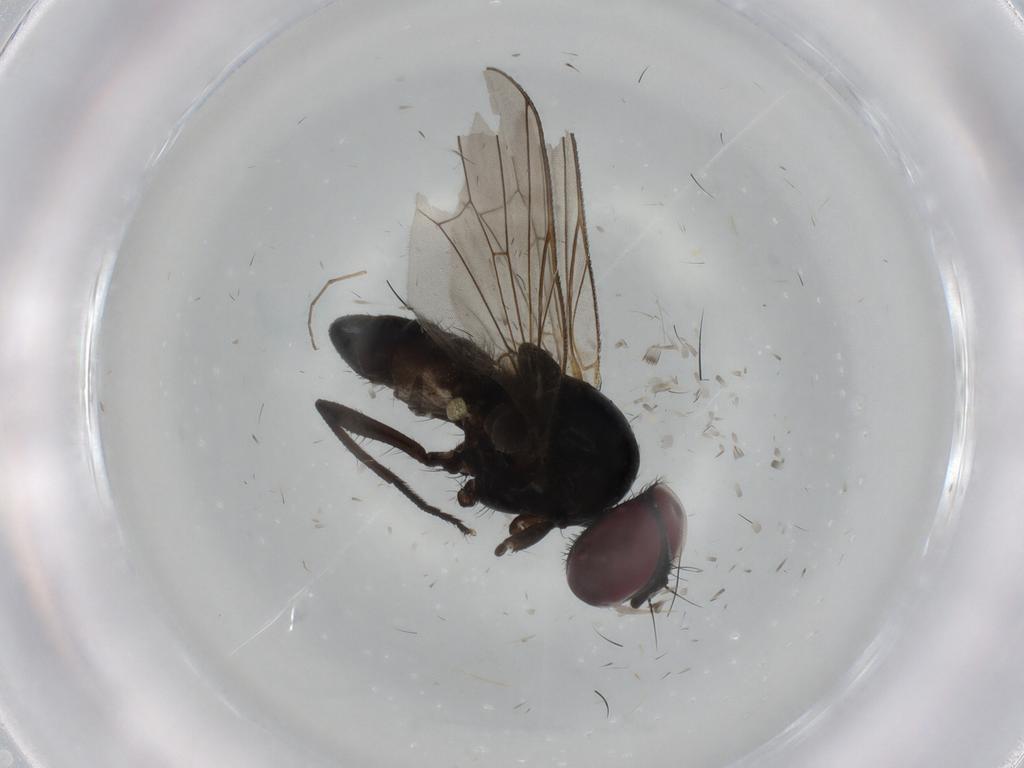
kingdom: Animalia
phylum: Arthropoda
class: Insecta
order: Diptera
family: Fannia
